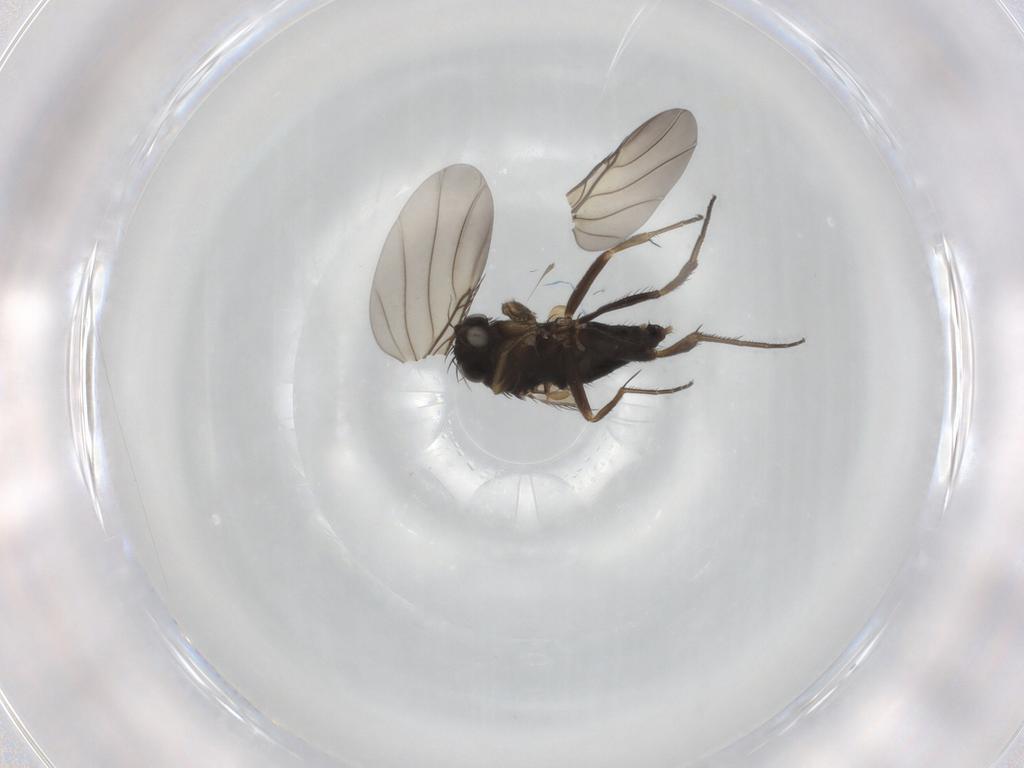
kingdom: Animalia
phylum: Arthropoda
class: Insecta
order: Diptera
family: Phoridae
